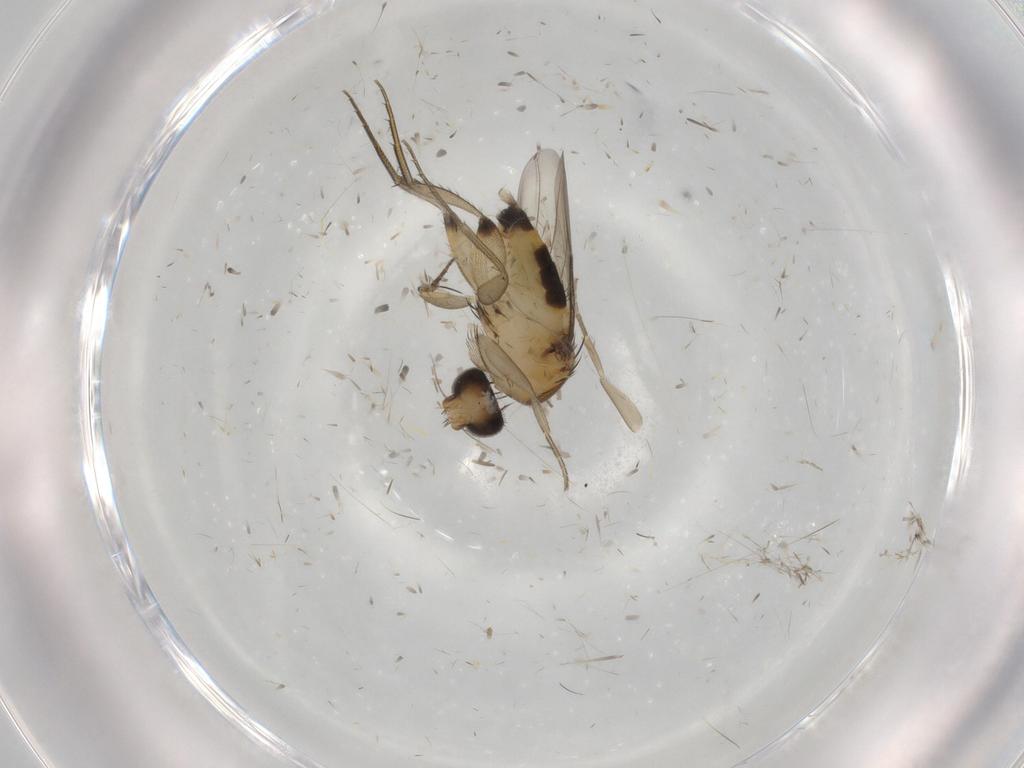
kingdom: Animalia
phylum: Arthropoda
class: Insecta
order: Diptera
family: Phoridae
